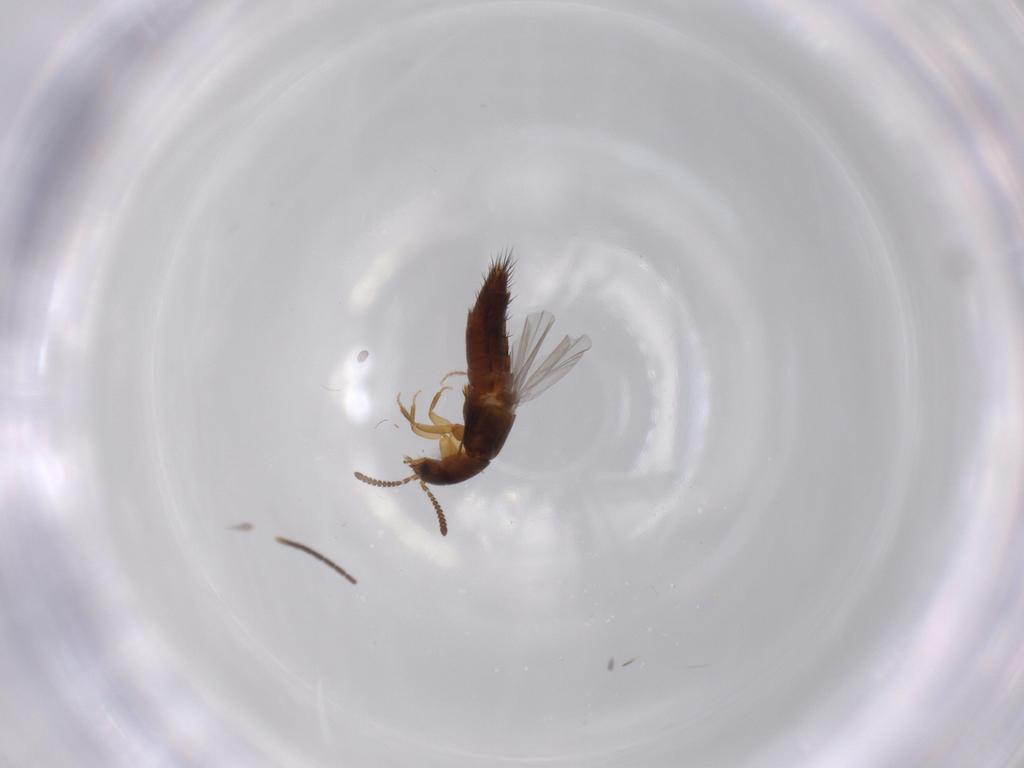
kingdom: Animalia
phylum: Arthropoda
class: Insecta
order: Coleoptera
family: Staphylinidae
